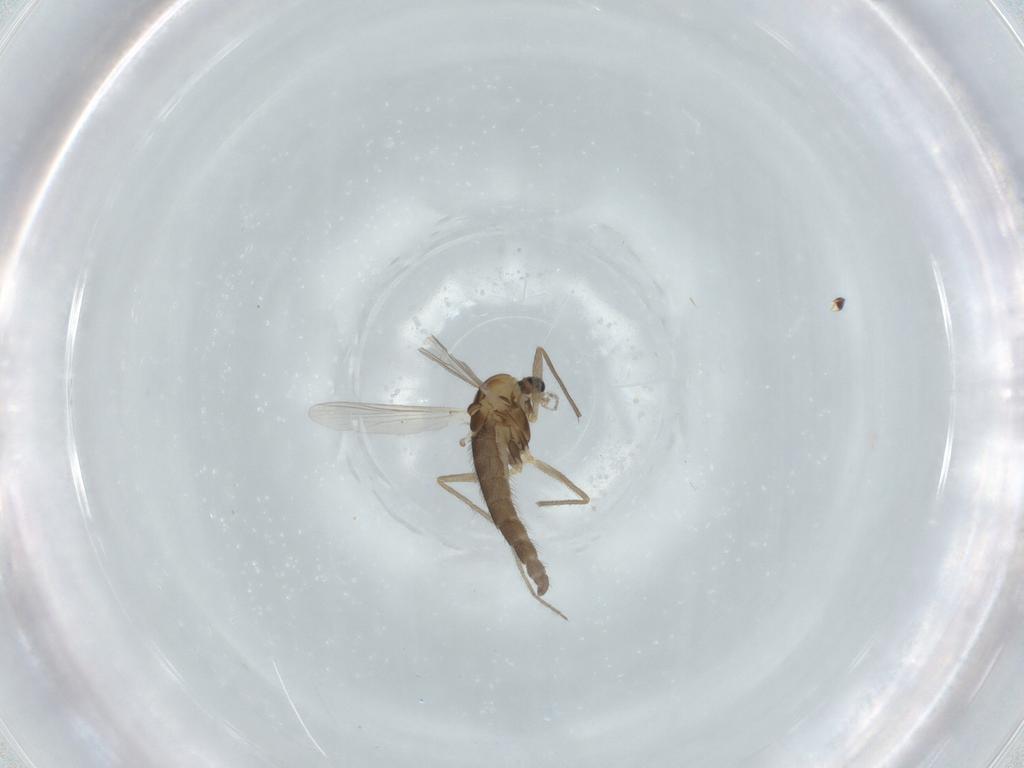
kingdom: Animalia
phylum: Arthropoda
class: Insecta
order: Diptera
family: Chironomidae
